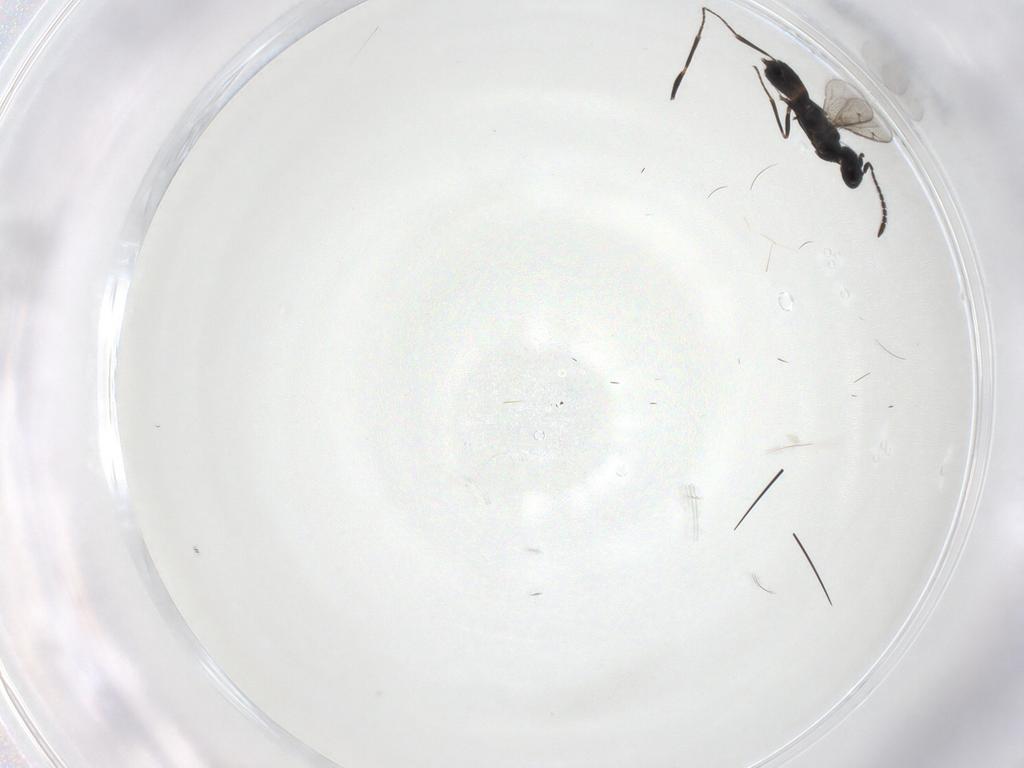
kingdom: Animalia
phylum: Arthropoda
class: Insecta
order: Hymenoptera
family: Eupelmidae
